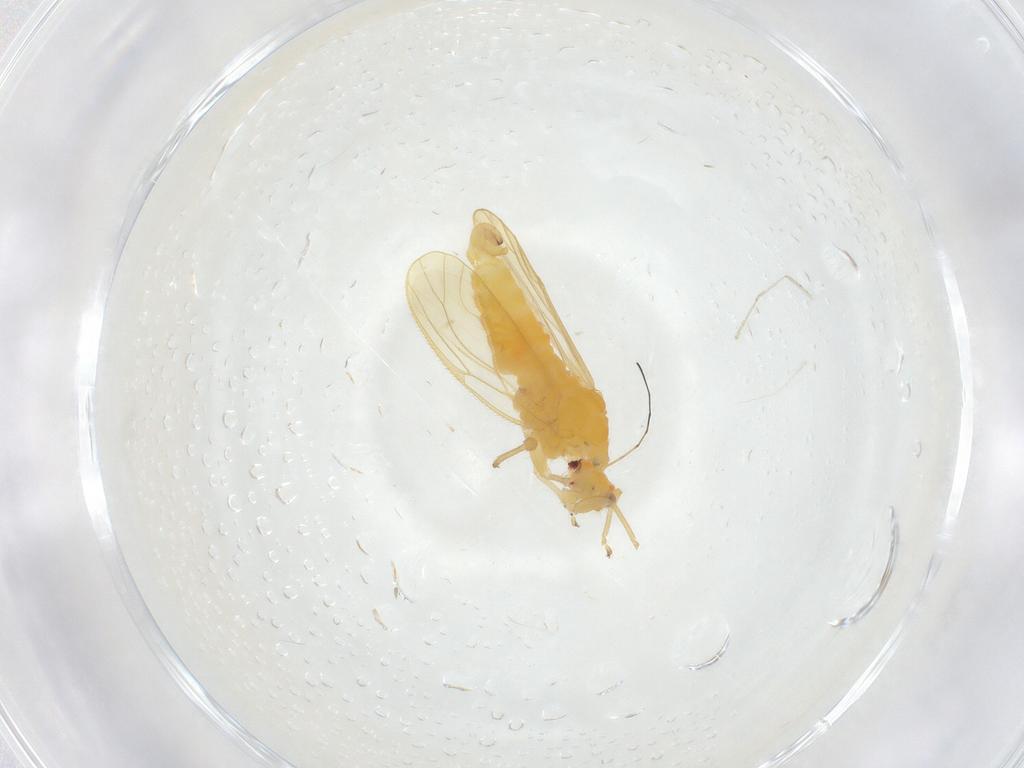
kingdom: Animalia
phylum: Arthropoda
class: Insecta
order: Hemiptera
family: Psyllidae
